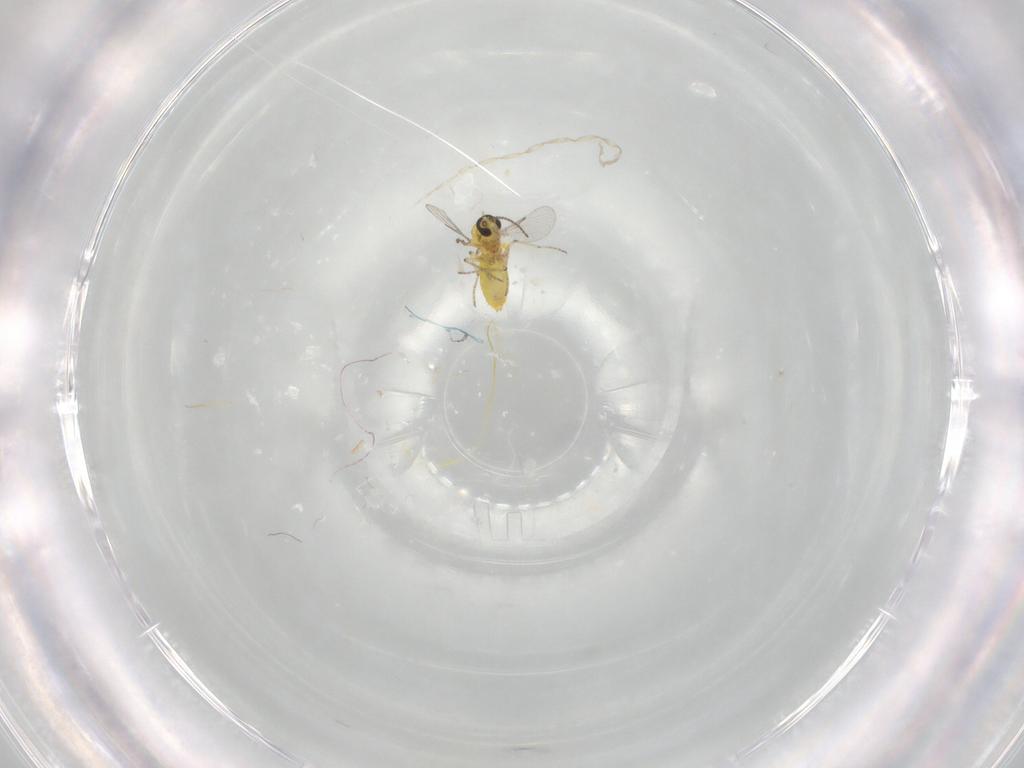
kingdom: Animalia
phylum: Arthropoda
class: Insecta
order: Diptera
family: Ceratopogonidae
